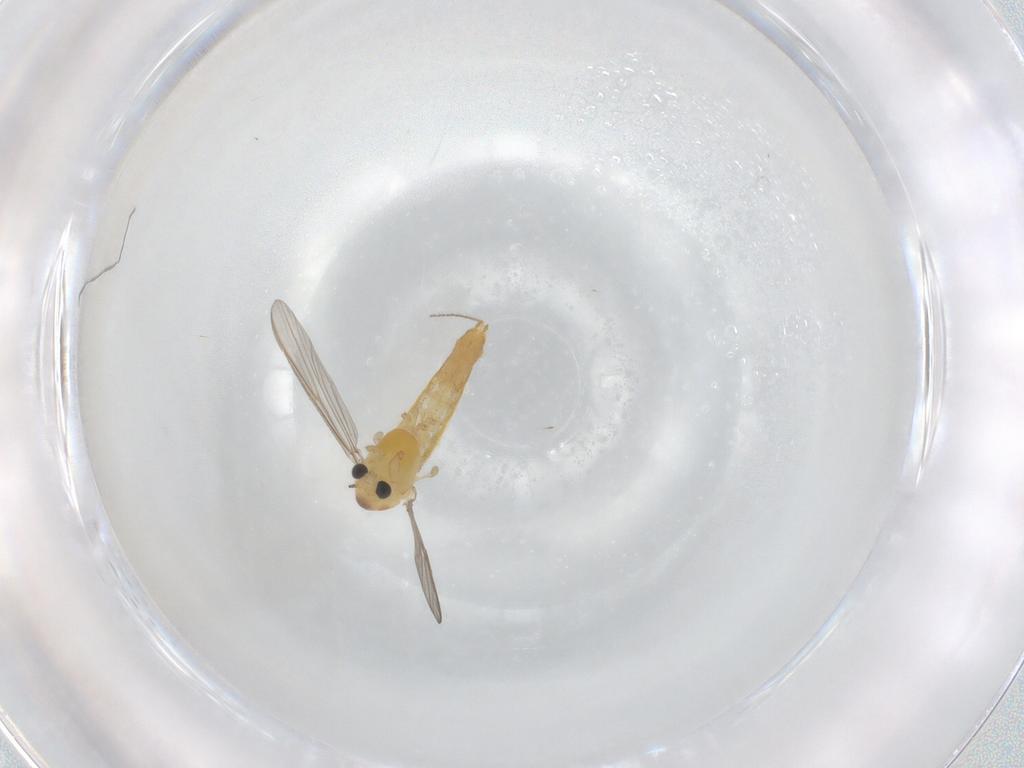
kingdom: Animalia
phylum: Arthropoda
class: Insecta
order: Diptera
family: Chironomidae
